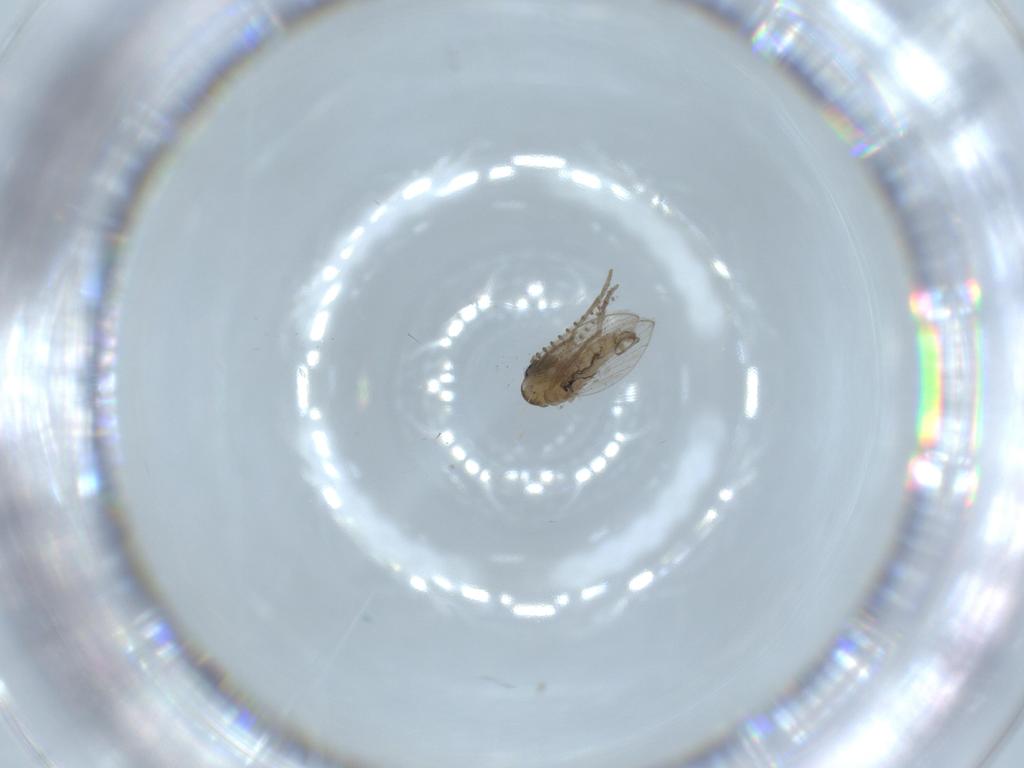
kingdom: Animalia
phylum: Arthropoda
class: Insecta
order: Diptera
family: Psychodidae
